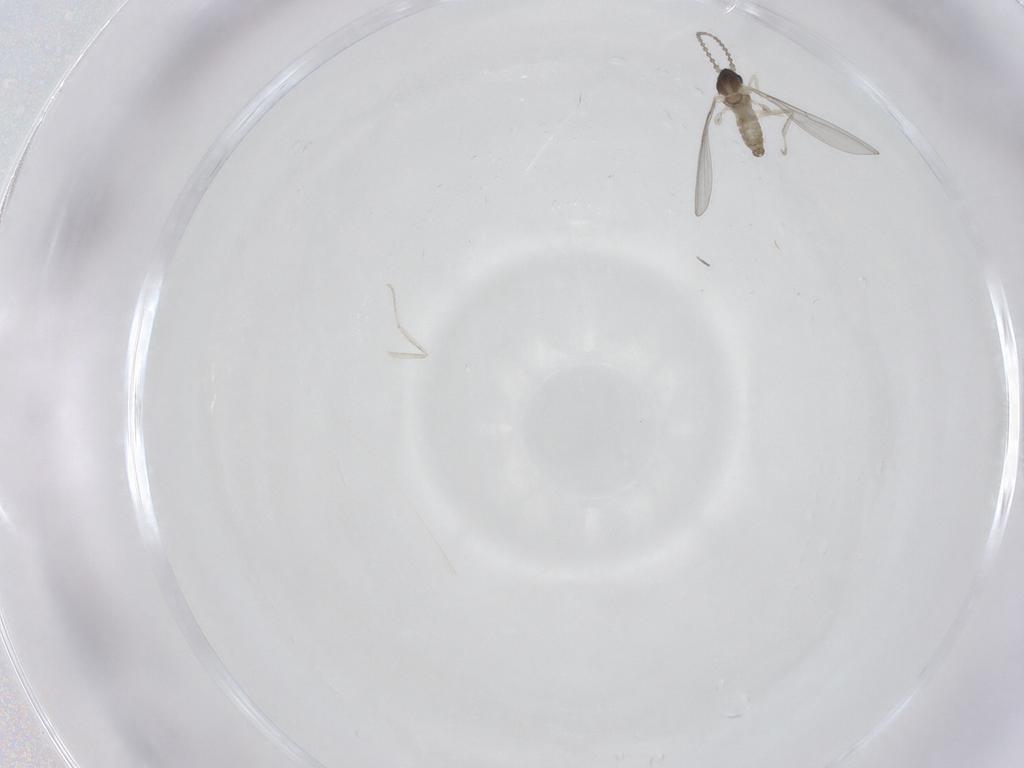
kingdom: Animalia
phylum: Arthropoda
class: Insecta
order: Diptera
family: Cecidomyiidae
